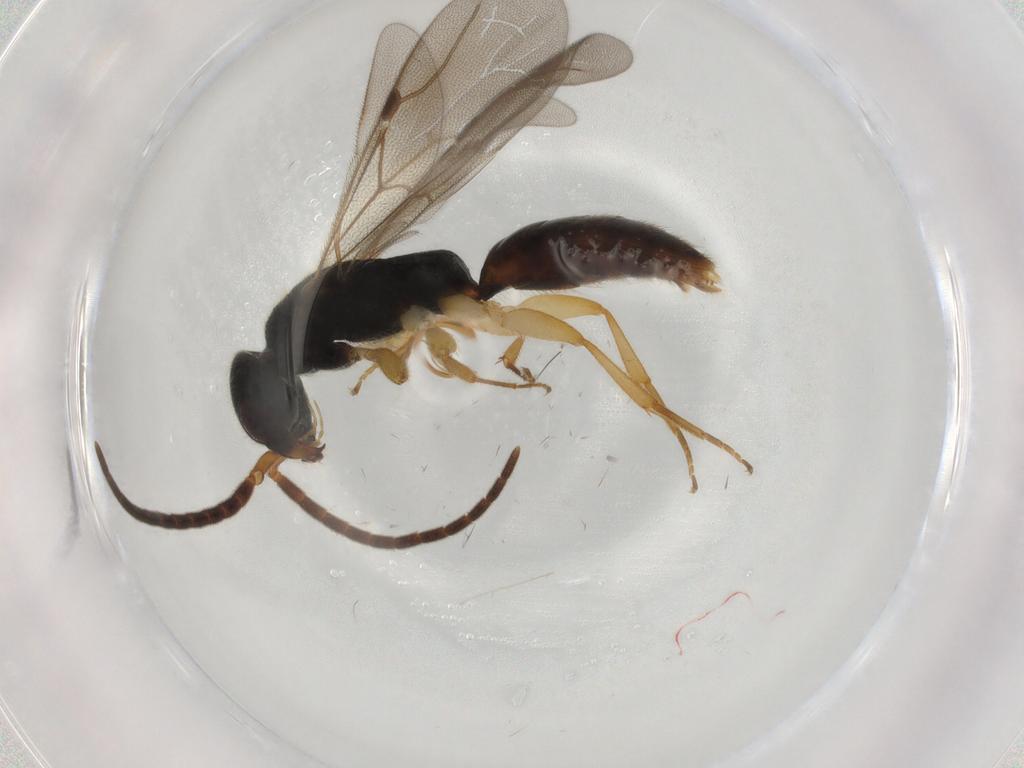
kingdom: Animalia
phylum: Arthropoda
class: Insecta
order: Hymenoptera
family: Bethylidae
